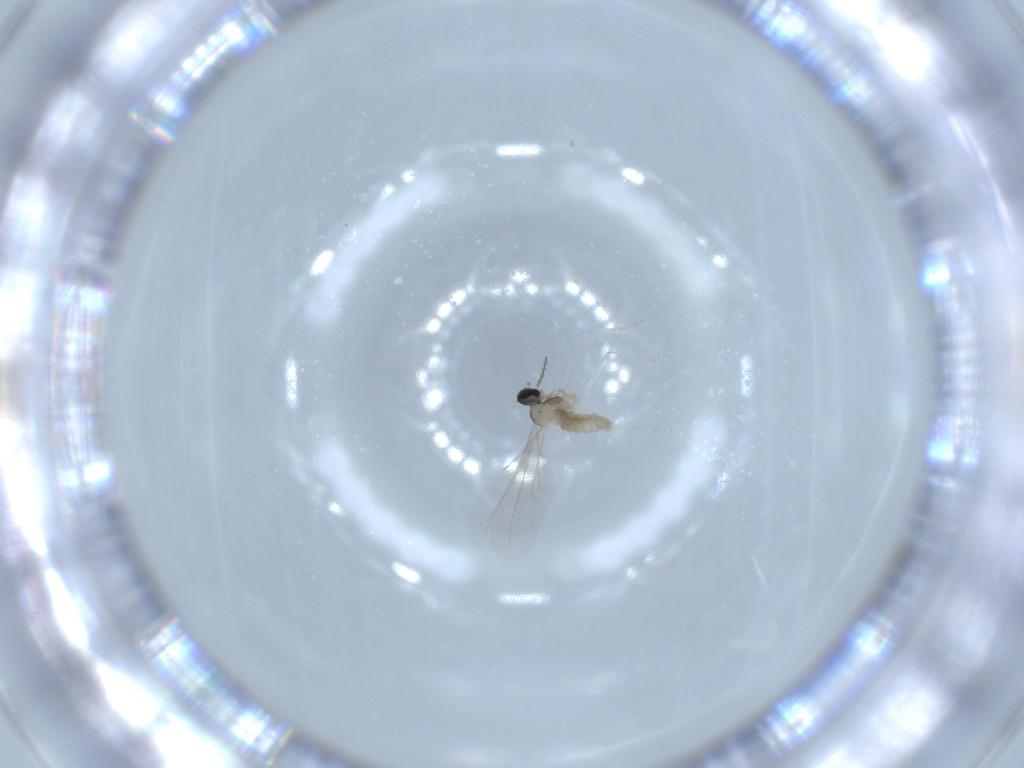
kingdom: Animalia
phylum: Arthropoda
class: Insecta
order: Diptera
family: Cecidomyiidae
